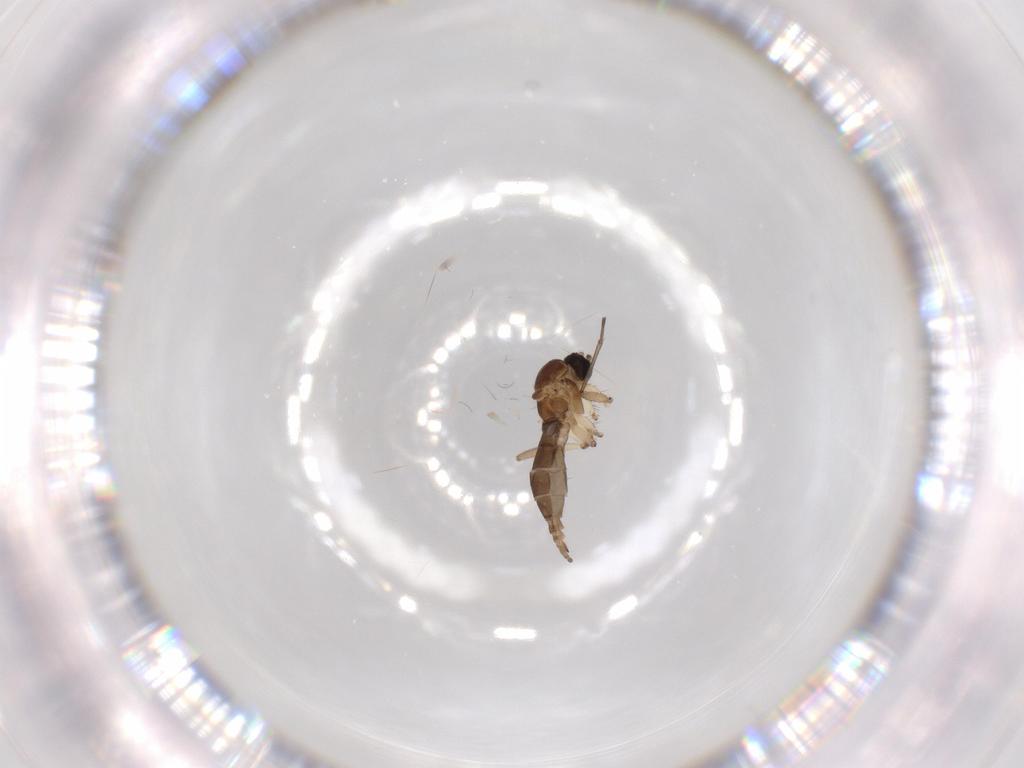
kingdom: Animalia
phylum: Arthropoda
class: Insecta
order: Diptera
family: Sciaridae
